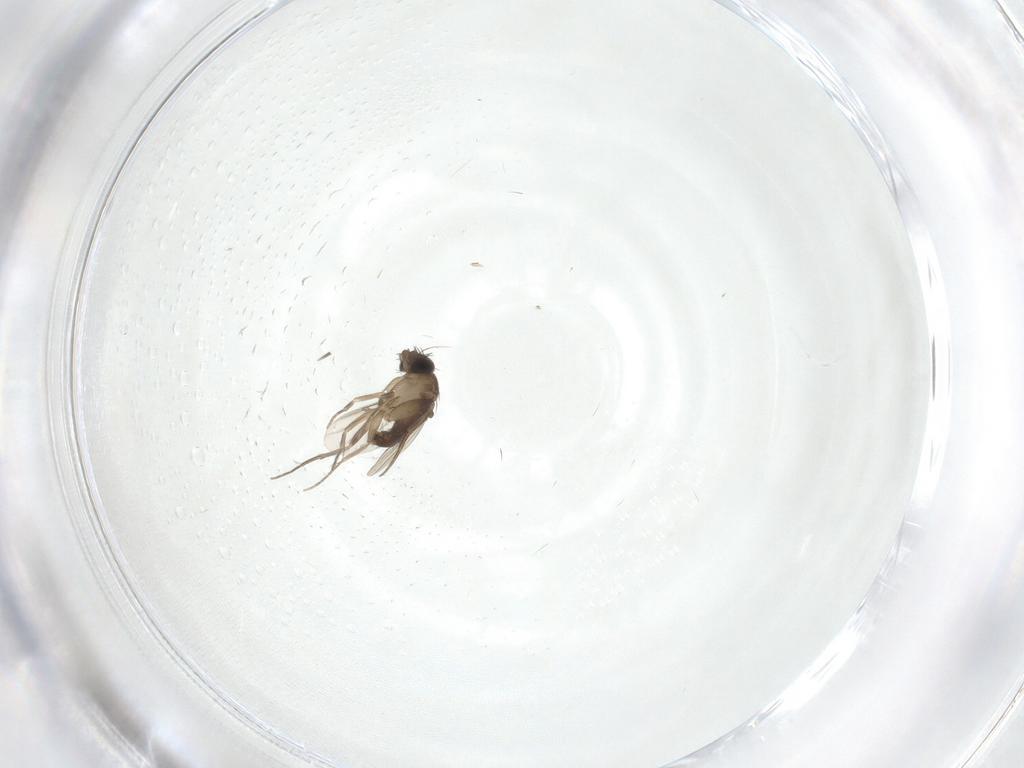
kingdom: Animalia
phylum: Arthropoda
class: Insecta
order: Diptera
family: Phoridae
